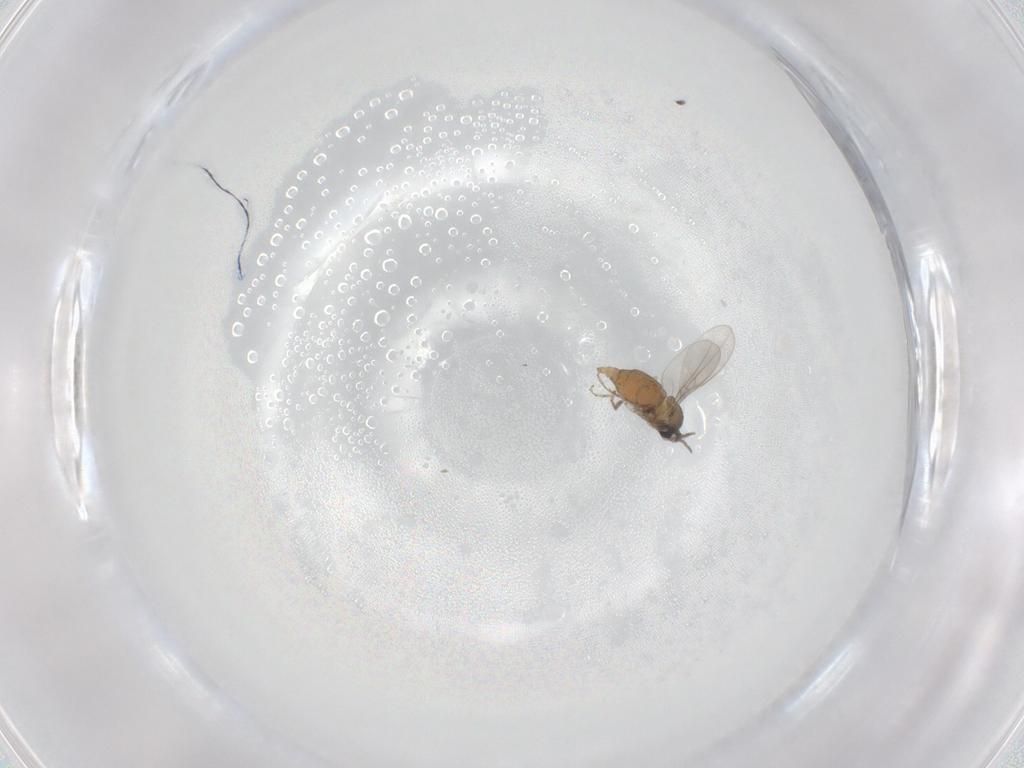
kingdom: Animalia
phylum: Arthropoda
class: Insecta
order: Diptera
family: Cecidomyiidae
